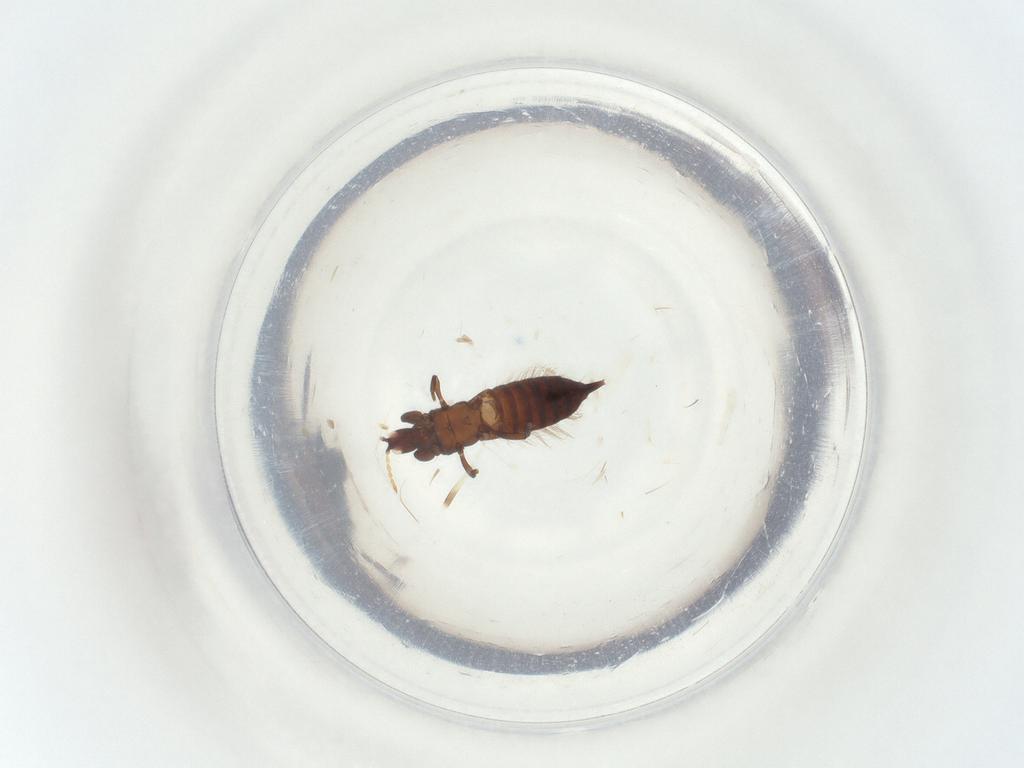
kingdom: Animalia
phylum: Arthropoda
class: Insecta
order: Thysanoptera
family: Phlaeothripidae
